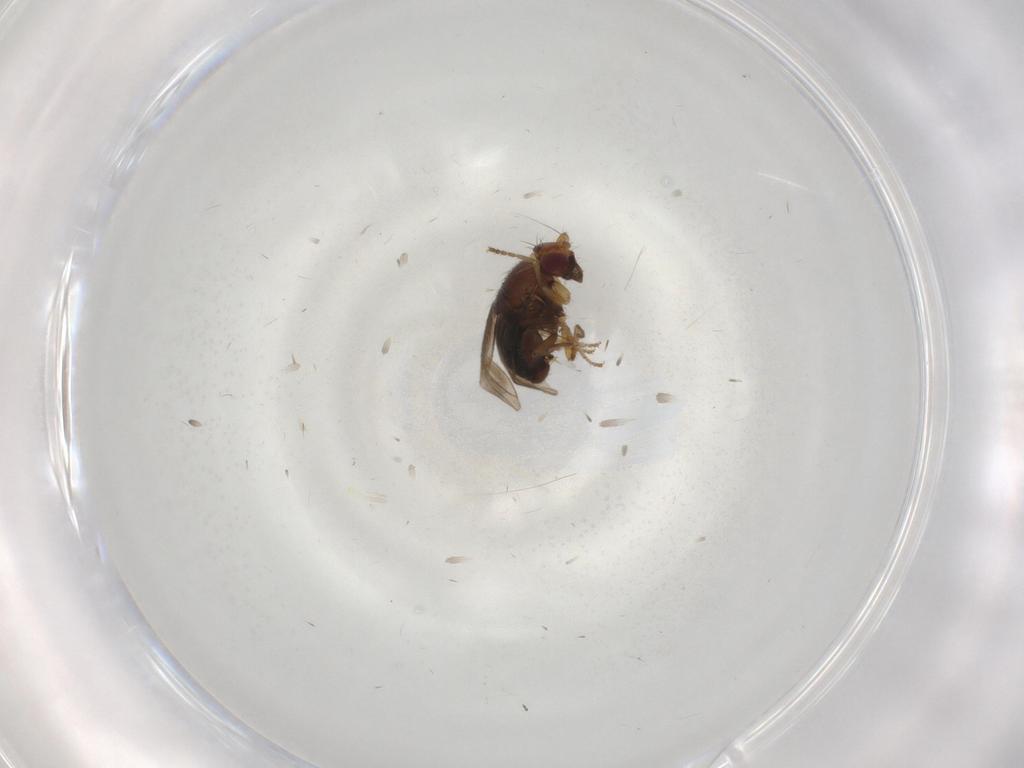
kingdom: Animalia
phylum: Arthropoda
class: Insecta
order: Diptera
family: Sphaeroceridae
